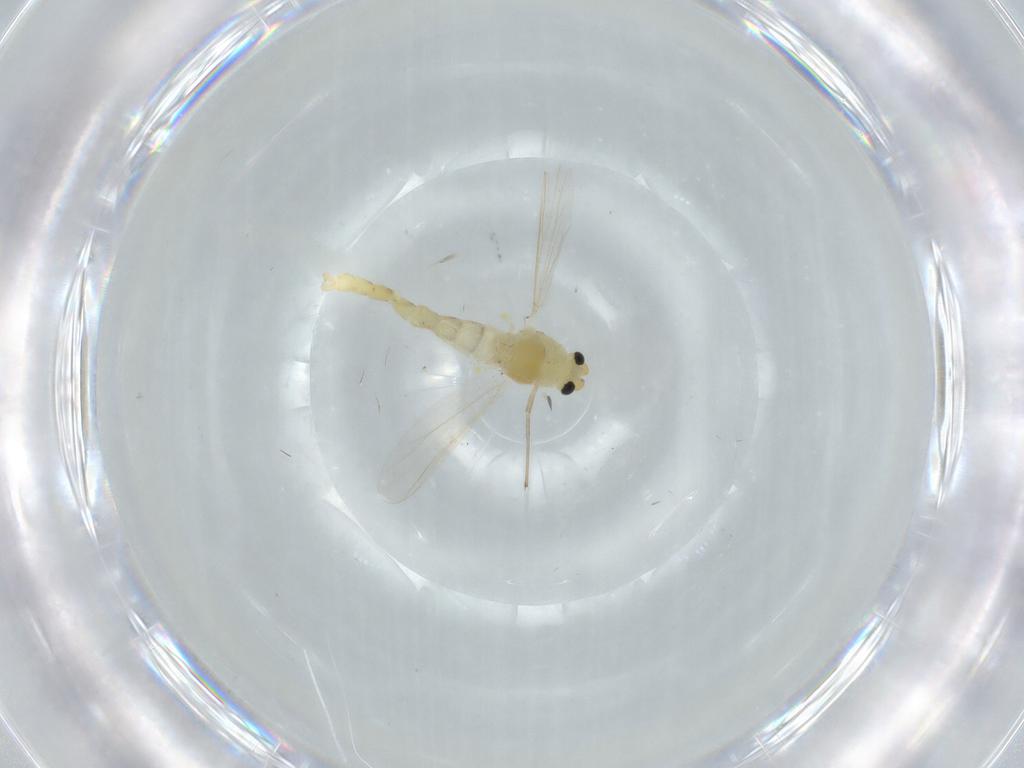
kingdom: Animalia
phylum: Arthropoda
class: Insecta
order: Diptera
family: Chironomidae
